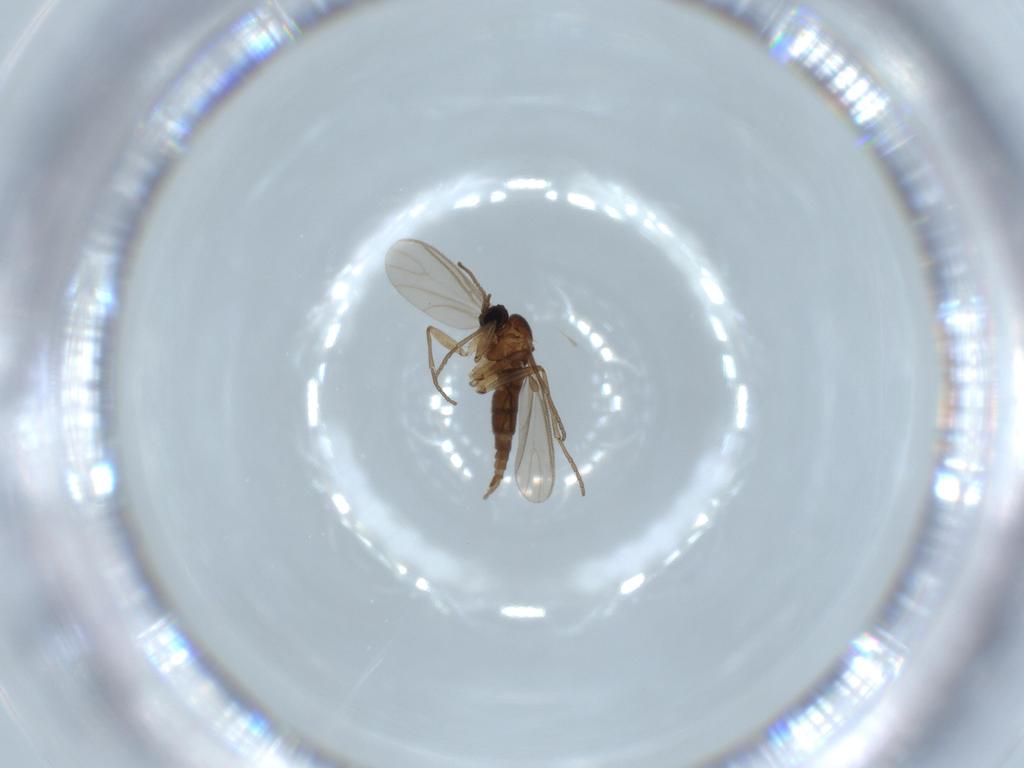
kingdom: Animalia
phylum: Arthropoda
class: Insecta
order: Diptera
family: Sciaridae
